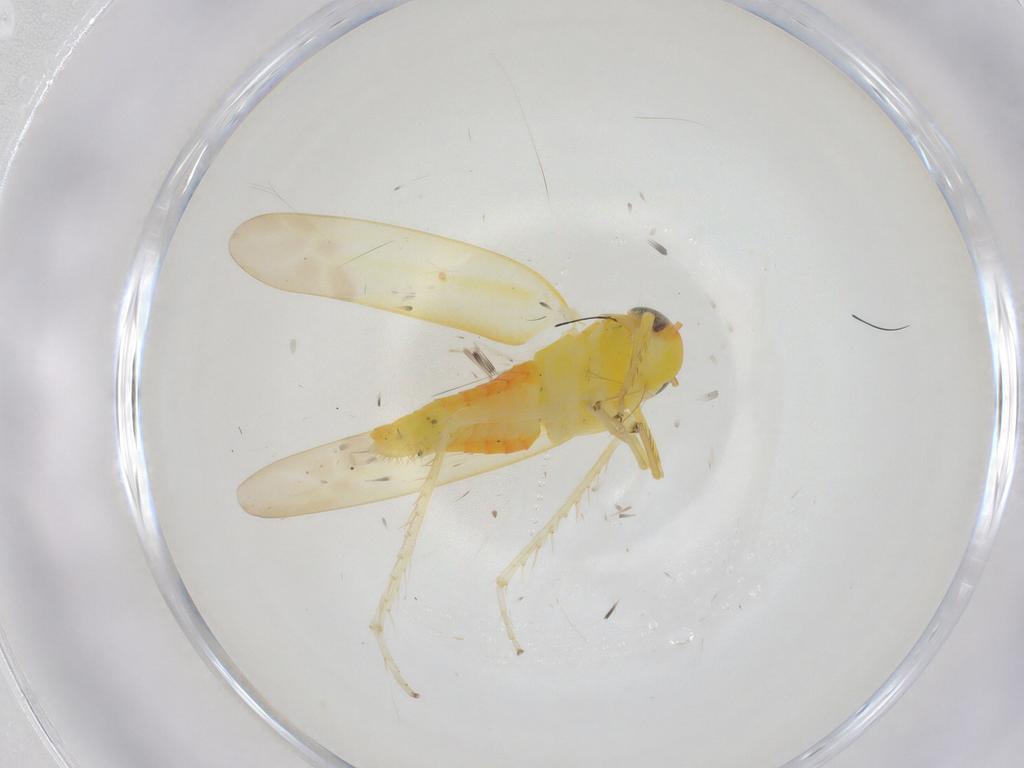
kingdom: Animalia
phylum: Arthropoda
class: Insecta
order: Hemiptera
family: Cicadellidae
